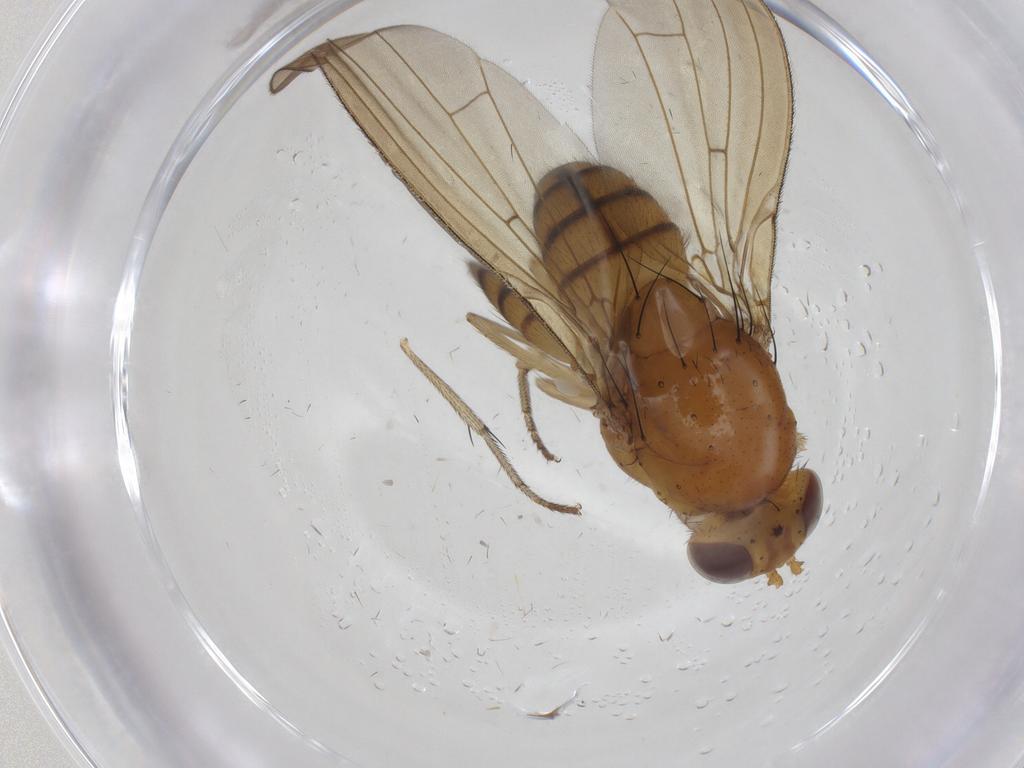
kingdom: Animalia
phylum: Arthropoda
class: Insecta
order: Diptera
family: Psychodidae
